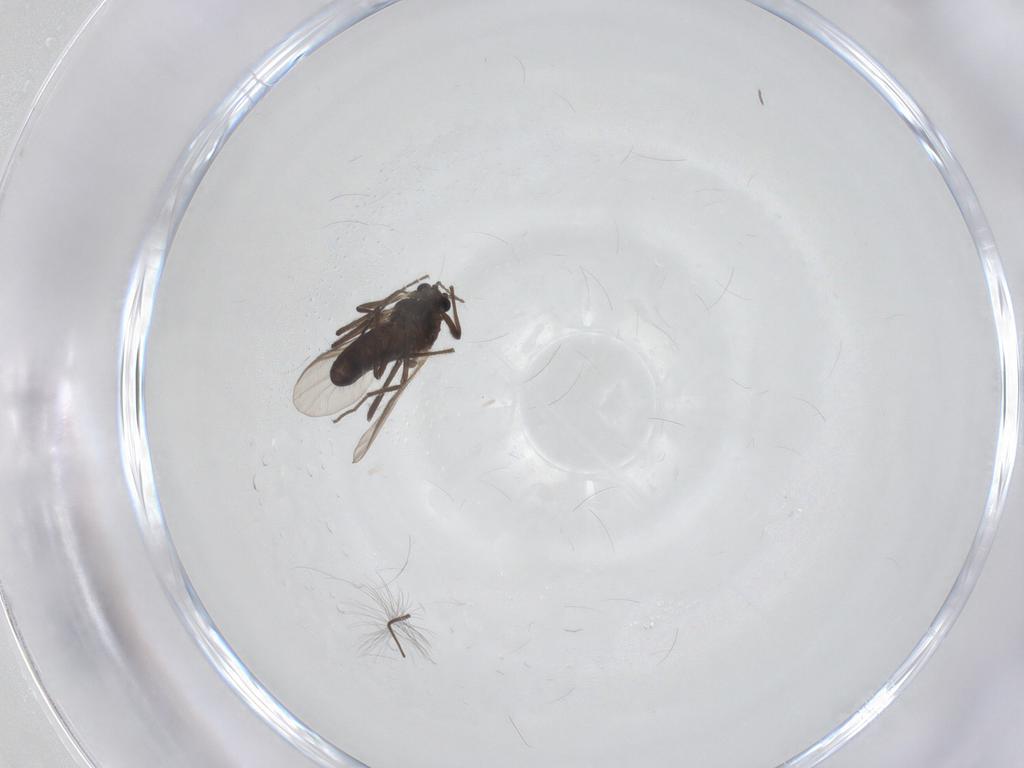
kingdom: Animalia
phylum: Arthropoda
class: Insecta
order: Diptera
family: Chironomidae
